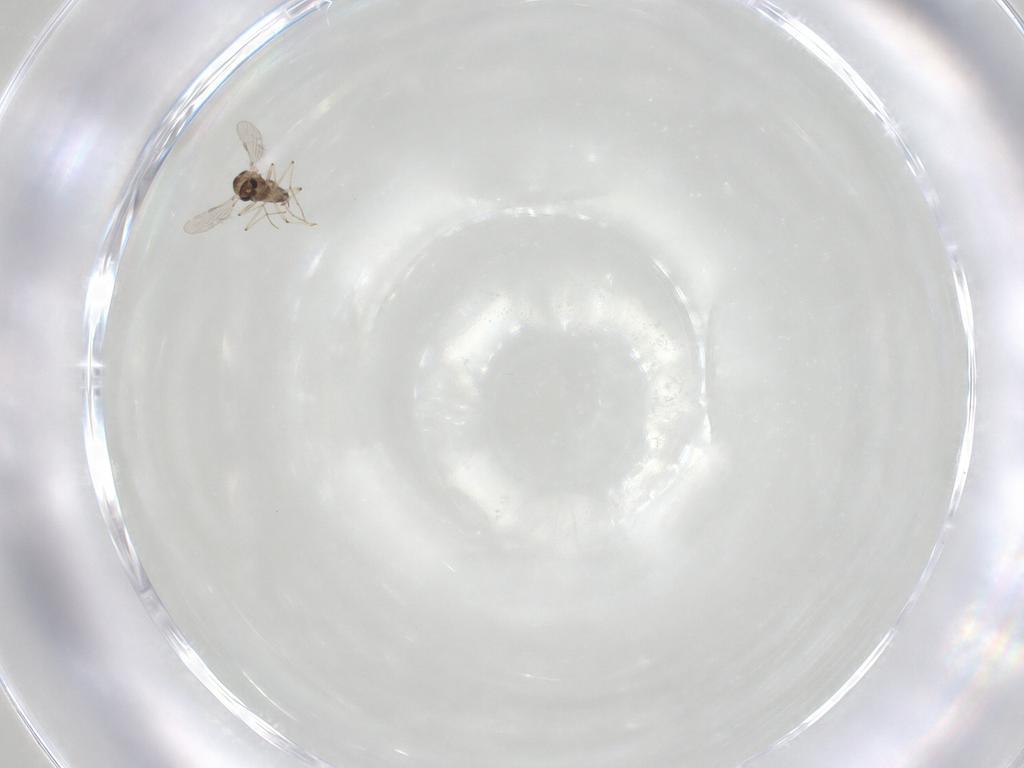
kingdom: Animalia
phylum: Arthropoda
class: Insecta
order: Diptera
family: Chironomidae
